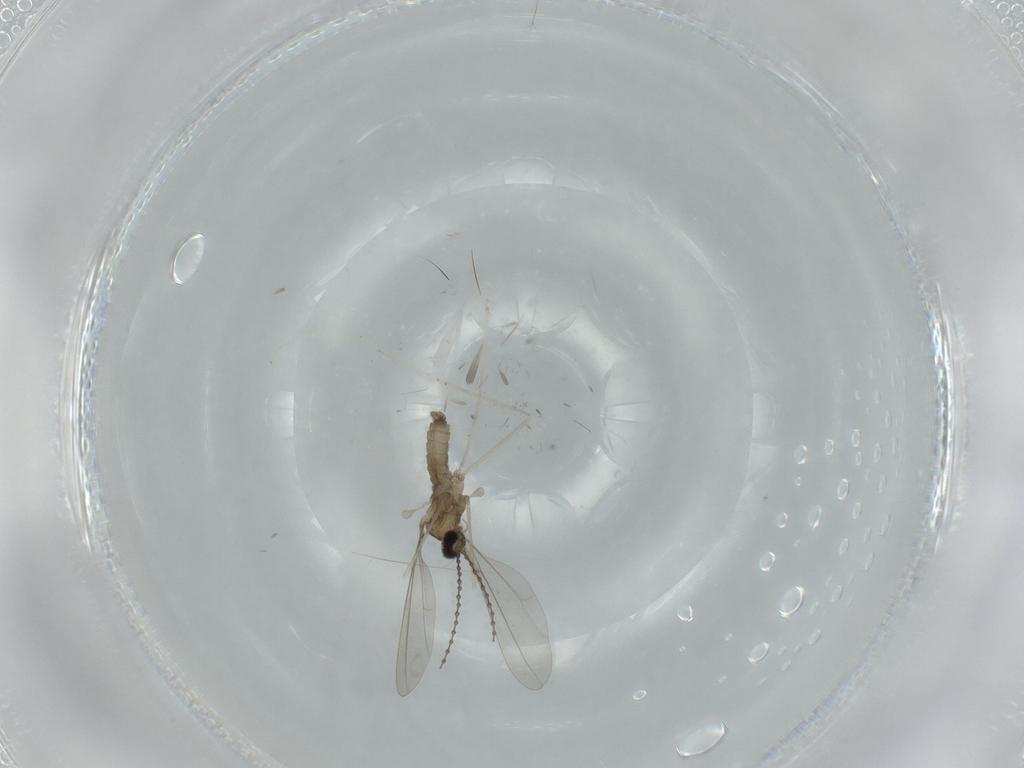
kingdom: Animalia
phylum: Arthropoda
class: Insecta
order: Diptera
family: Cecidomyiidae
